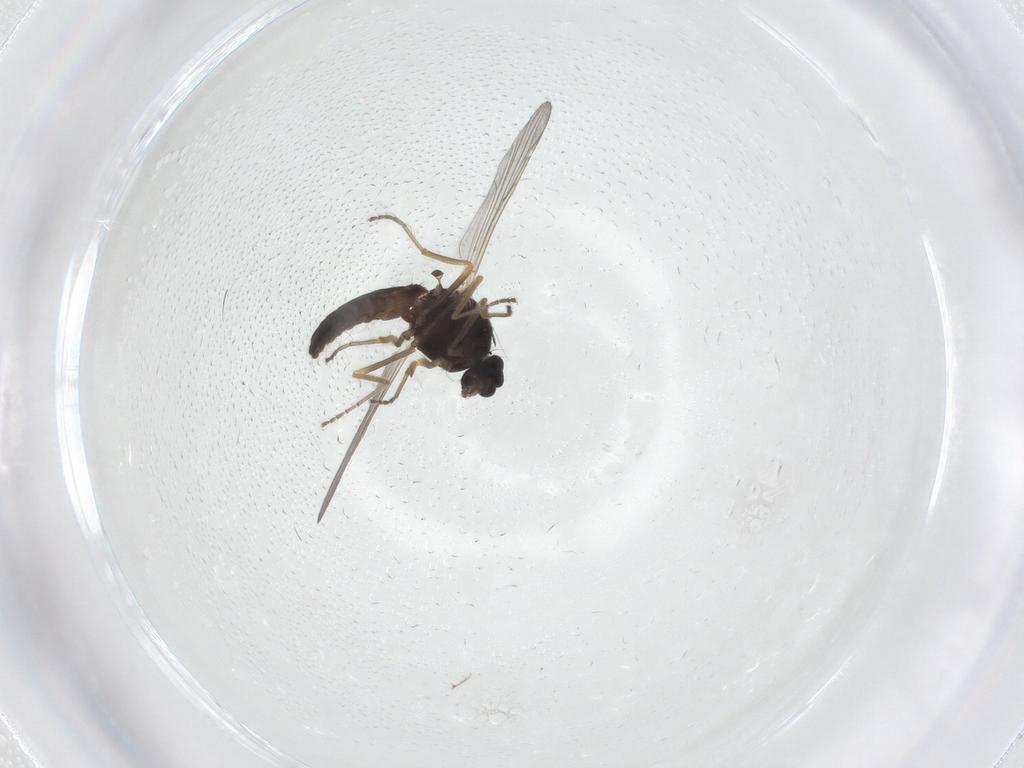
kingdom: Animalia
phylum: Arthropoda
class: Insecta
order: Diptera
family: Ceratopogonidae
